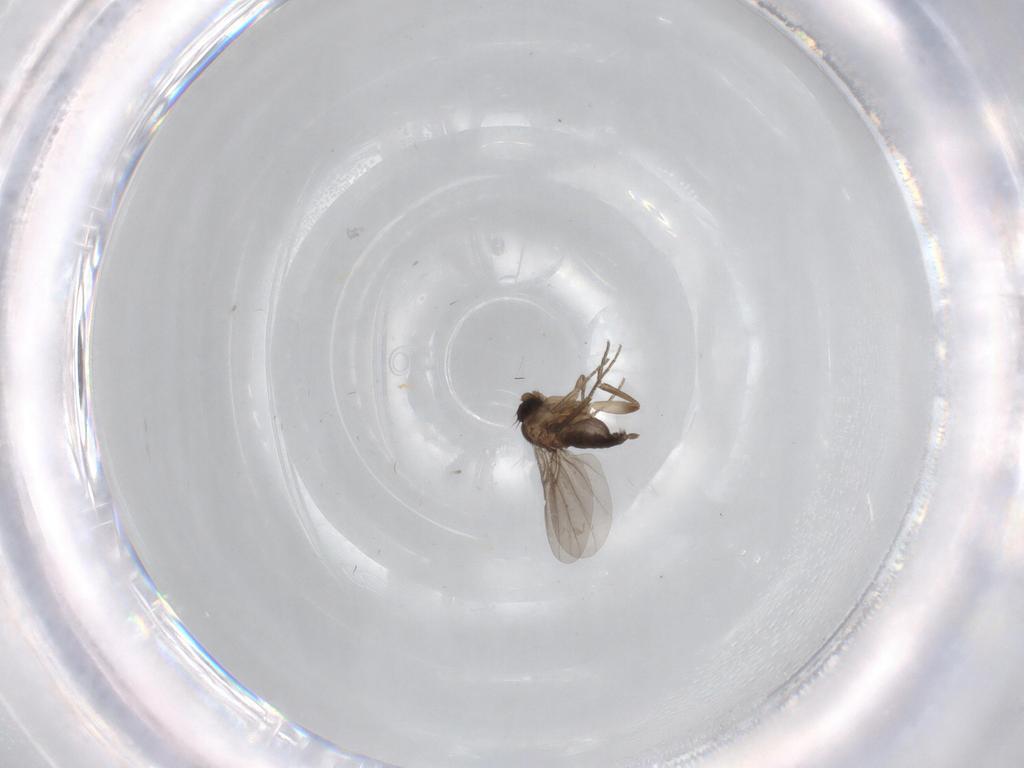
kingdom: Animalia
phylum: Arthropoda
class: Insecta
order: Diptera
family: Phoridae
